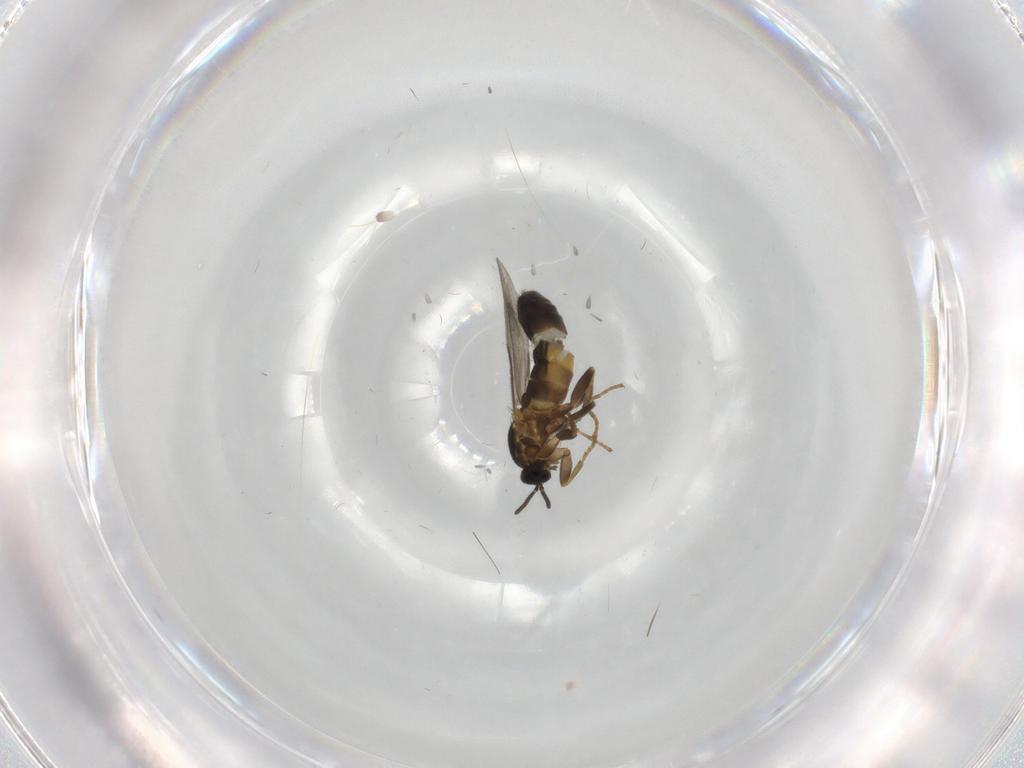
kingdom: Animalia
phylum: Arthropoda
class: Insecta
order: Diptera
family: Scatopsidae
